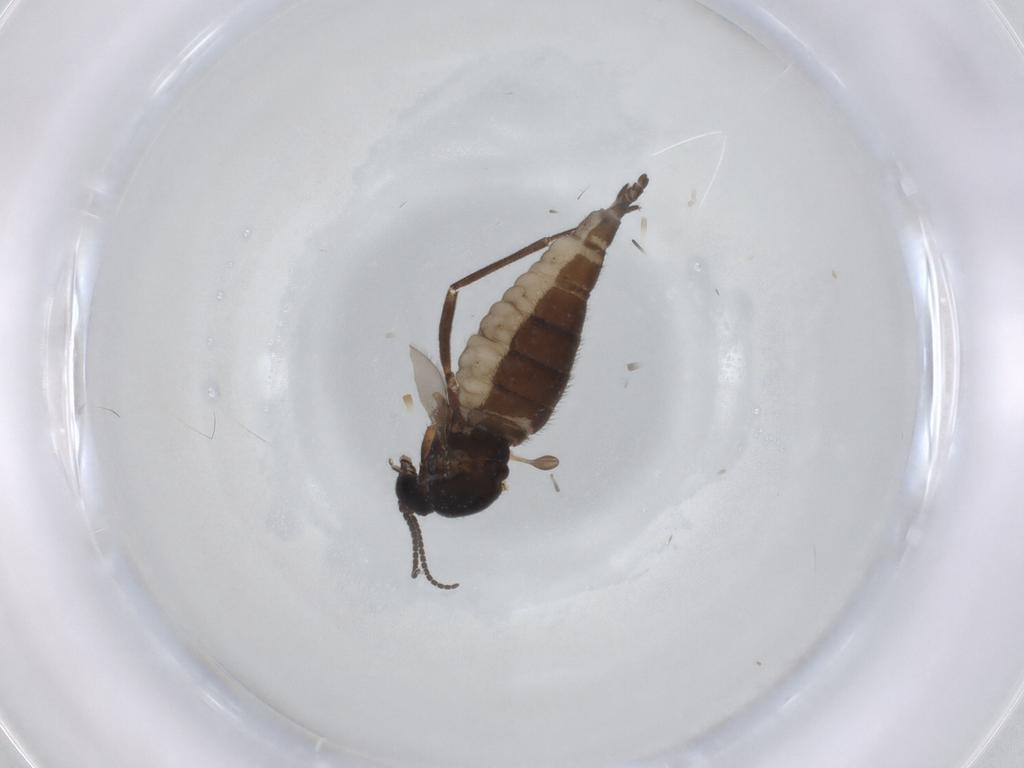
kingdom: Animalia
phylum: Arthropoda
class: Insecta
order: Diptera
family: Sciaridae
